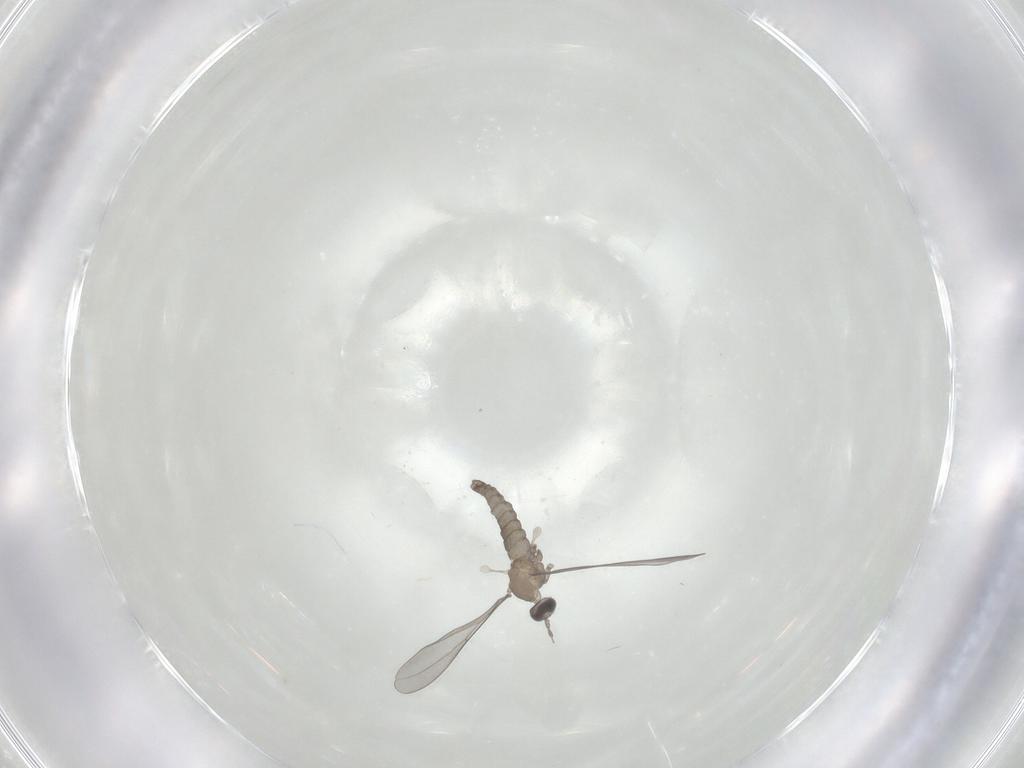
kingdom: Animalia
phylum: Arthropoda
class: Insecta
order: Diptera
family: Cecidomyiidae
